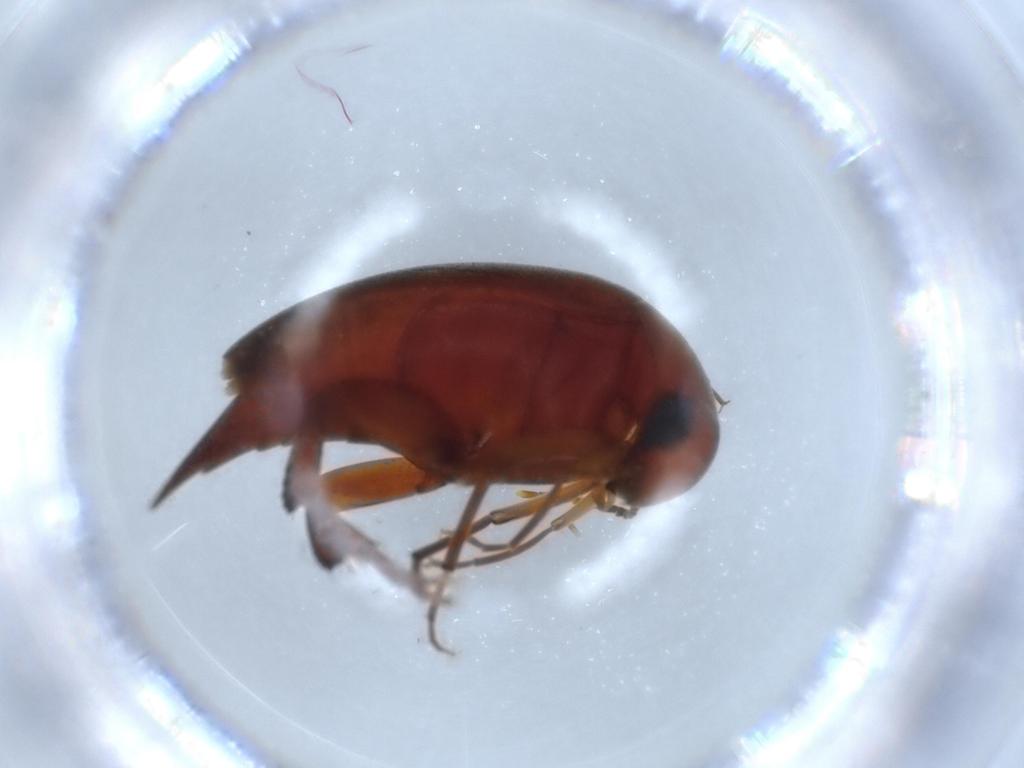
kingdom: Animalia
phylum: Arthropoda
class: Insecta
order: Coleoptera
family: Mordellidae
